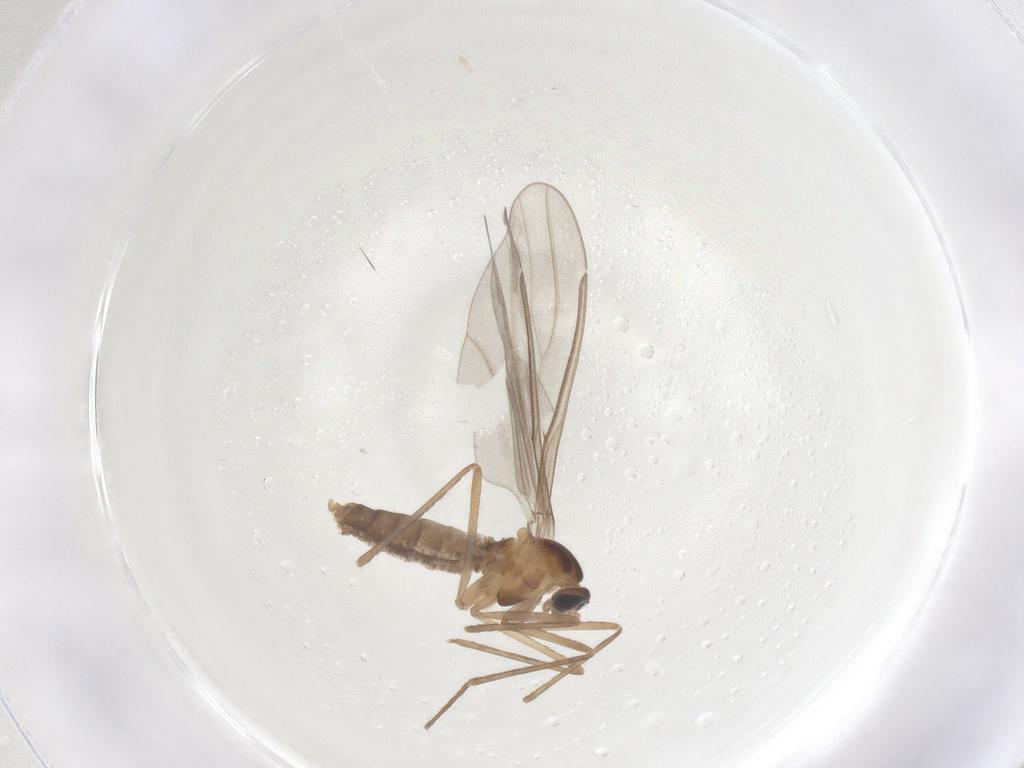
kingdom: Animalia
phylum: Arthropoda
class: Insecta
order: Diptera
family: Cecidomyiidae
